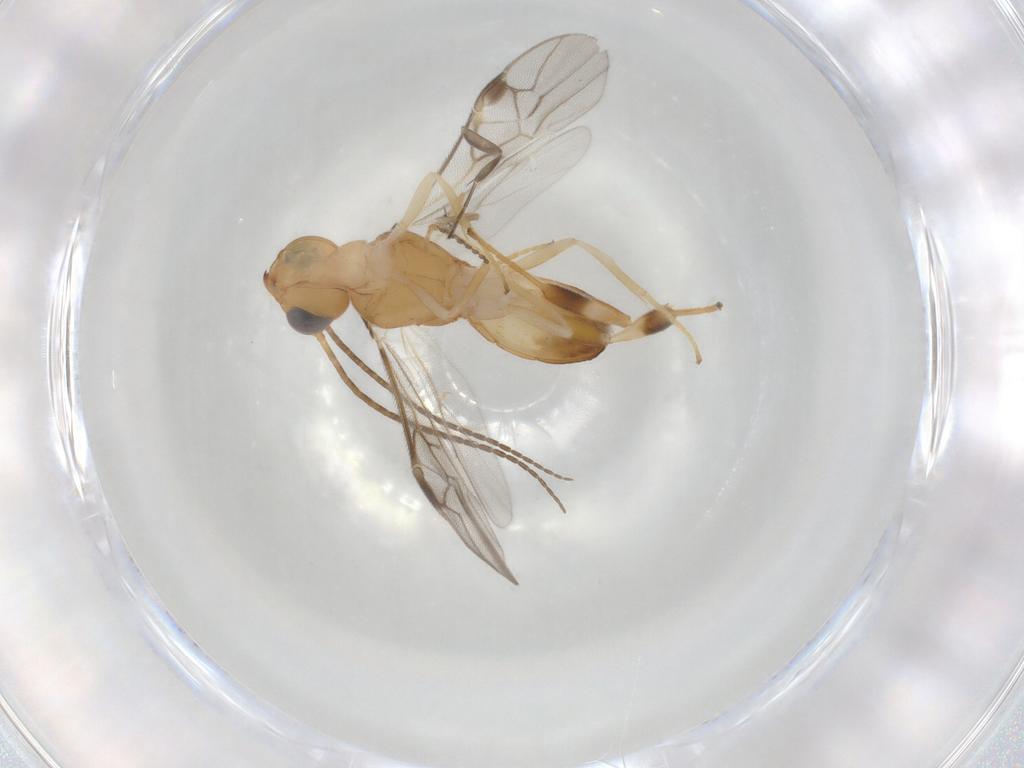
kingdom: Animalia
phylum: Arthropoda
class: Insecta
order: Hymenoptera
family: Braconidae
